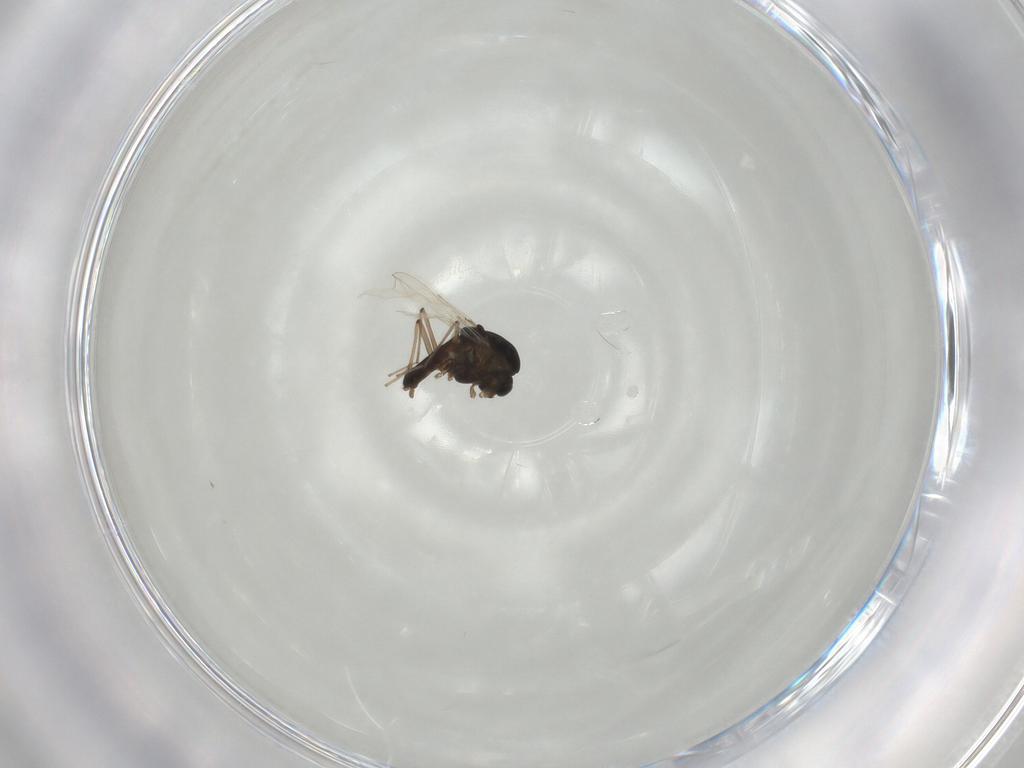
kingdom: Animalia
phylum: Arthropoda
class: Insecta
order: Diptera
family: Chironomidae
